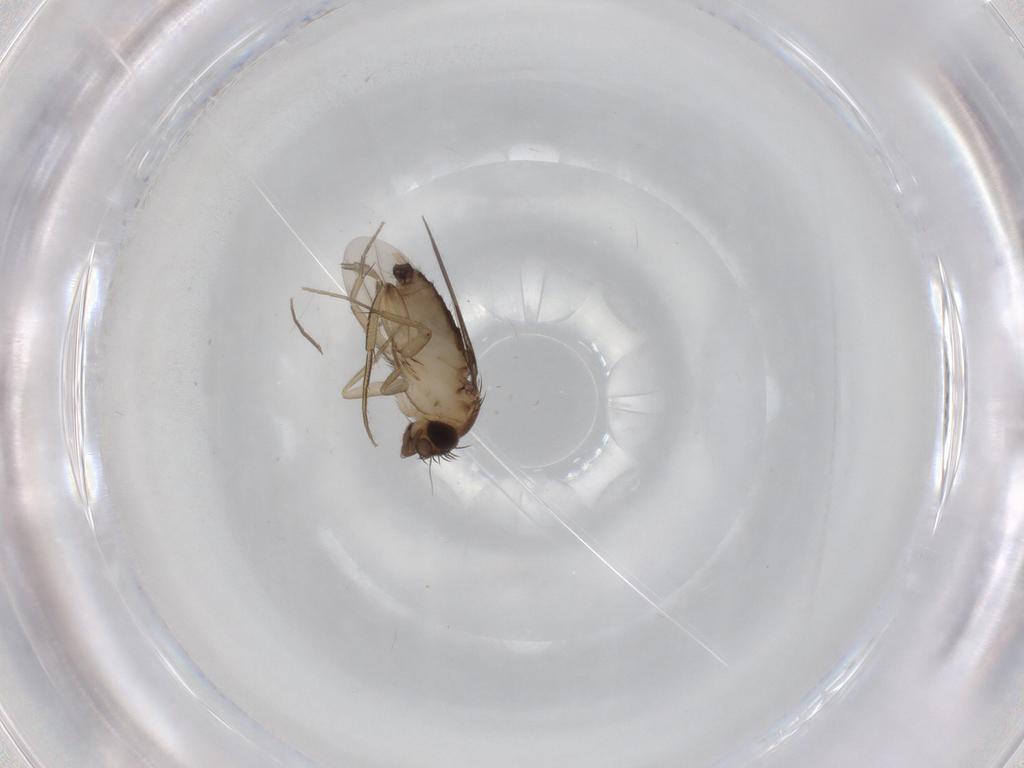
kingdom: Animalia
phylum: Arthropoda
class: Insecta
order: Diptera
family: Phoridae
